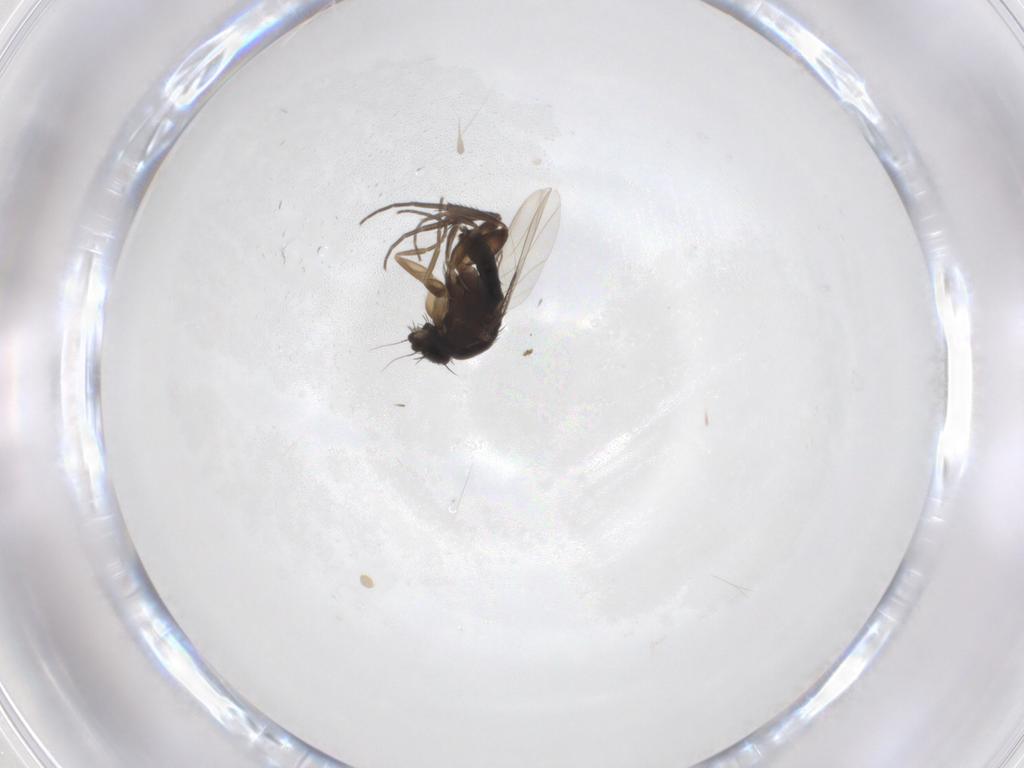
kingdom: Animalia
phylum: Arthropoda
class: Insecta
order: Diptera
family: Phoridae
